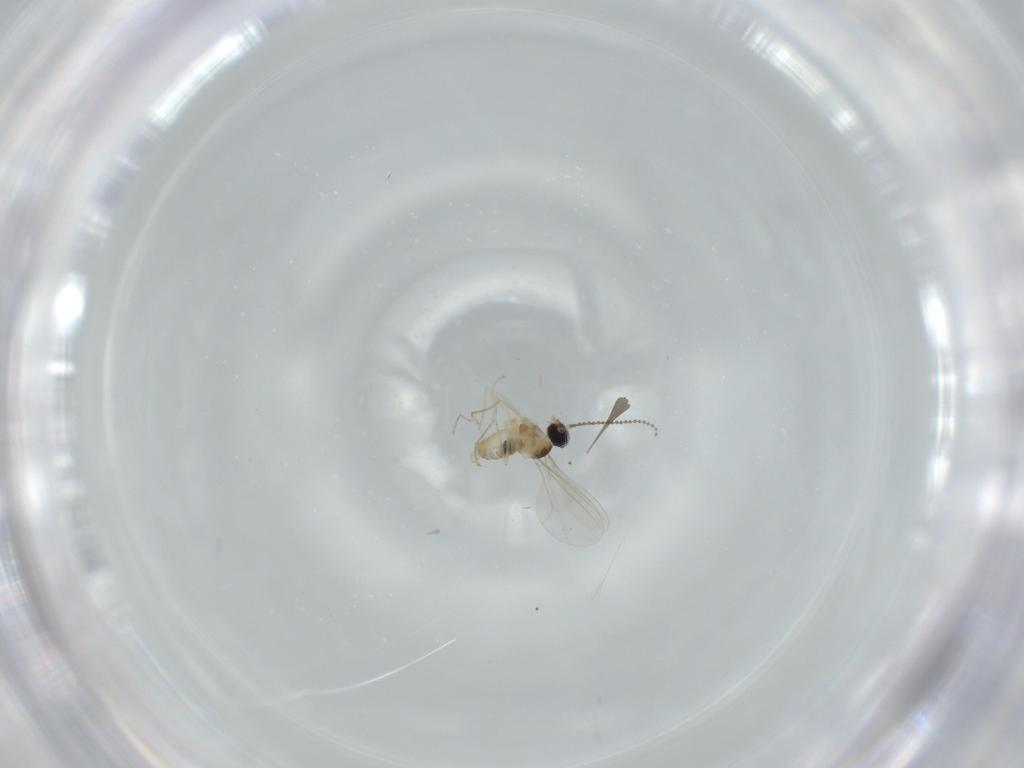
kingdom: Animalia
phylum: Arthropoda
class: Insecta
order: Diptera
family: Cecidomyiidae
